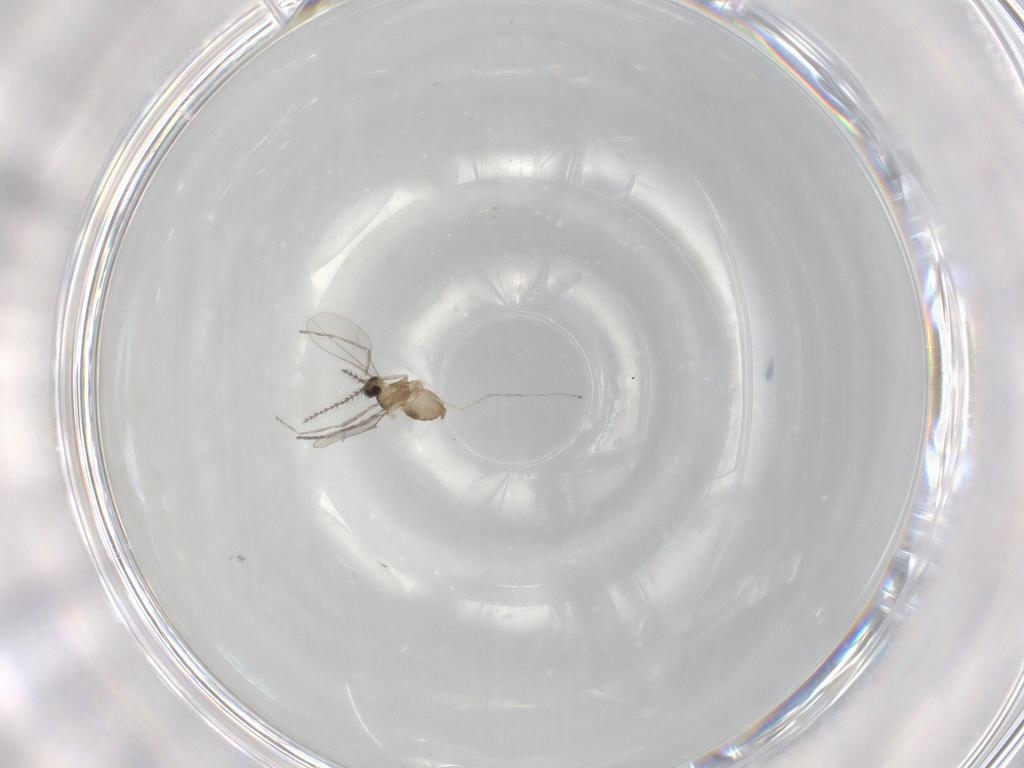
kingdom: Animalia
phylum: Arthropoda
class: Insecta
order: Diptera
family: Cecidomyiidae
